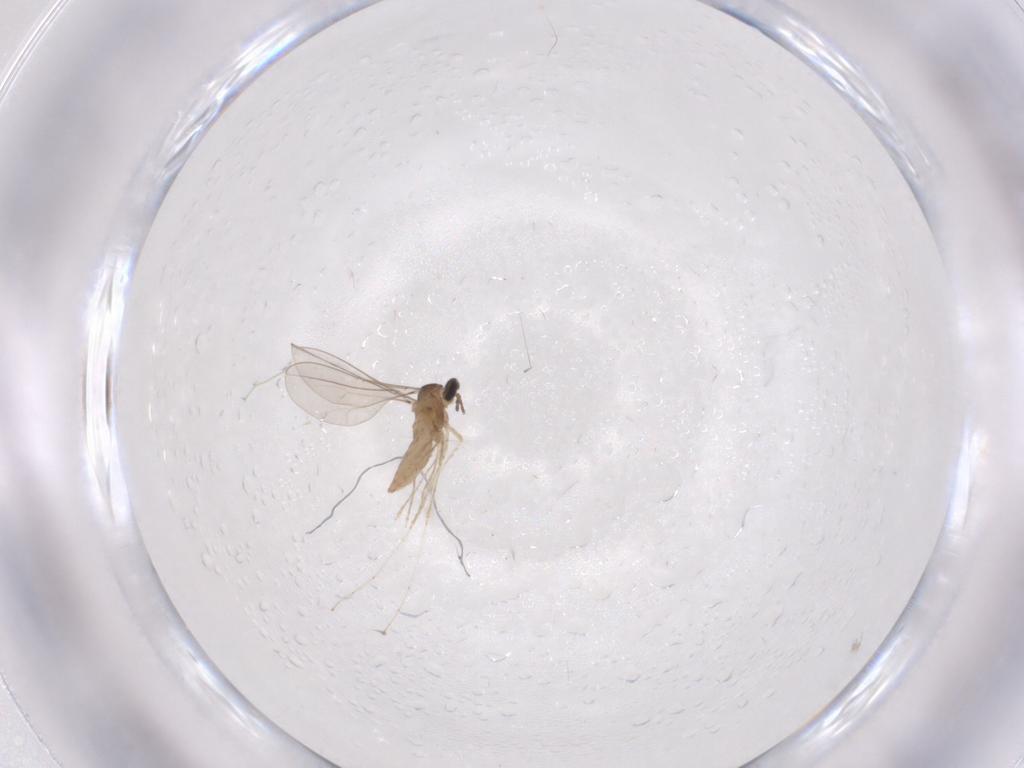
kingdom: Animalia
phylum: Arthropoda
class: Insecta
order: Diptera
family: Cecidomyiidae
